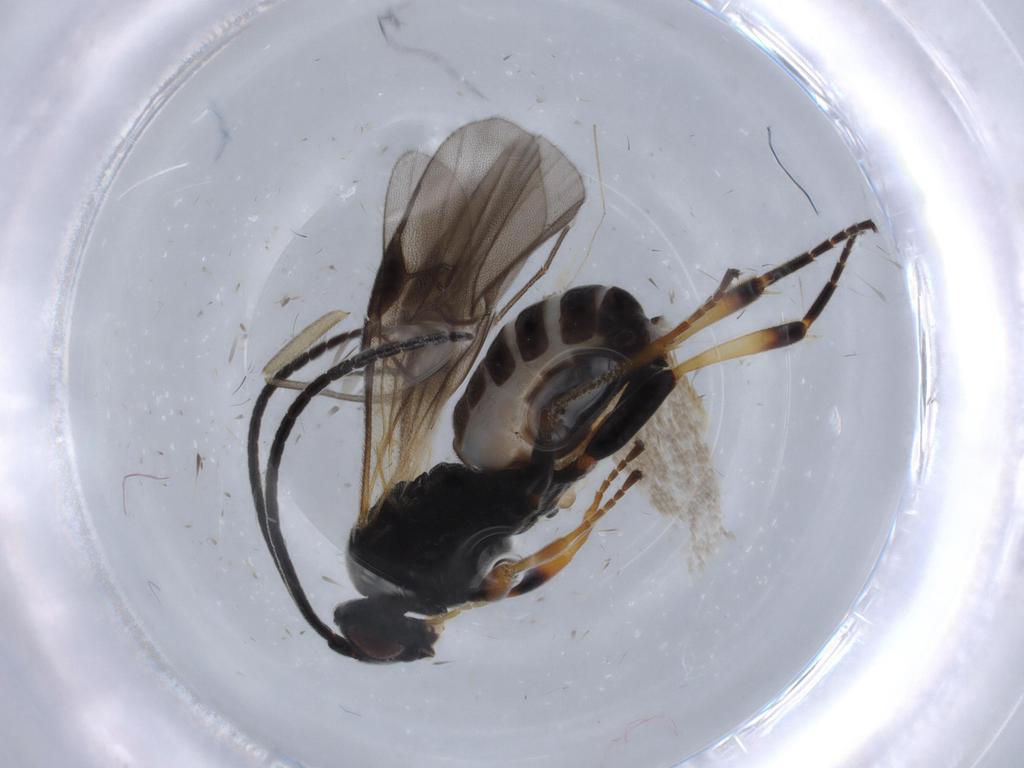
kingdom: Animalia
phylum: Arthropoda
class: Insecta
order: Hymenoptera
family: Braconidae
